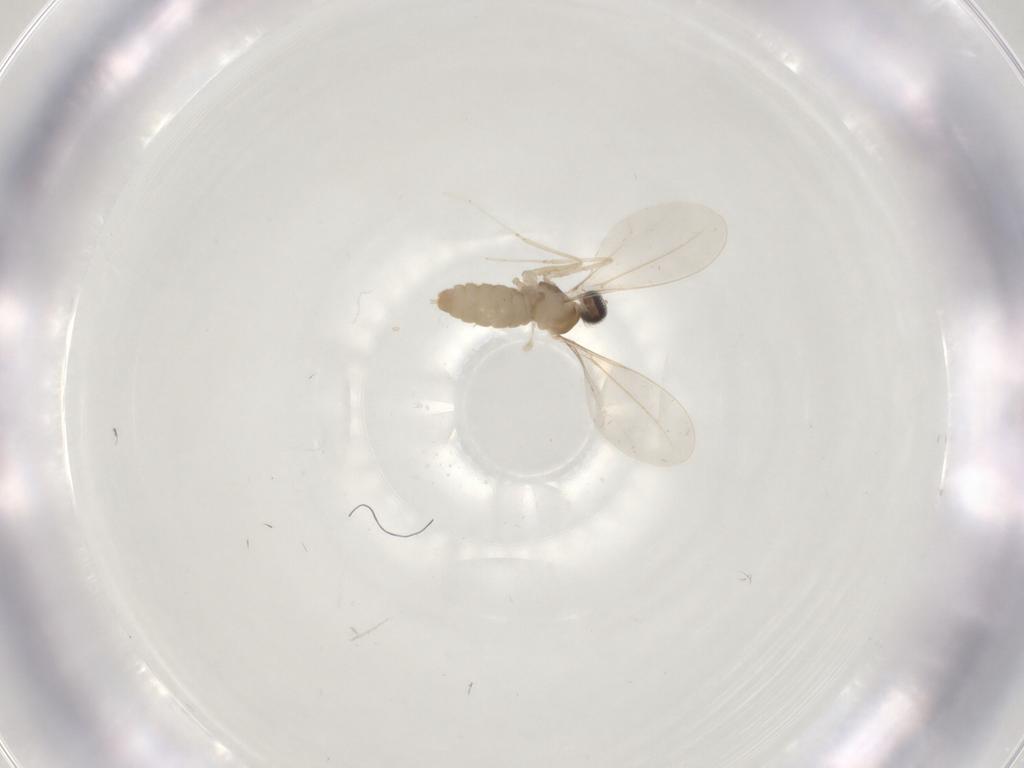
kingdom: Animalia
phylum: Arthropoda
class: Insecta
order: Diptera
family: Cecidomyiidae
